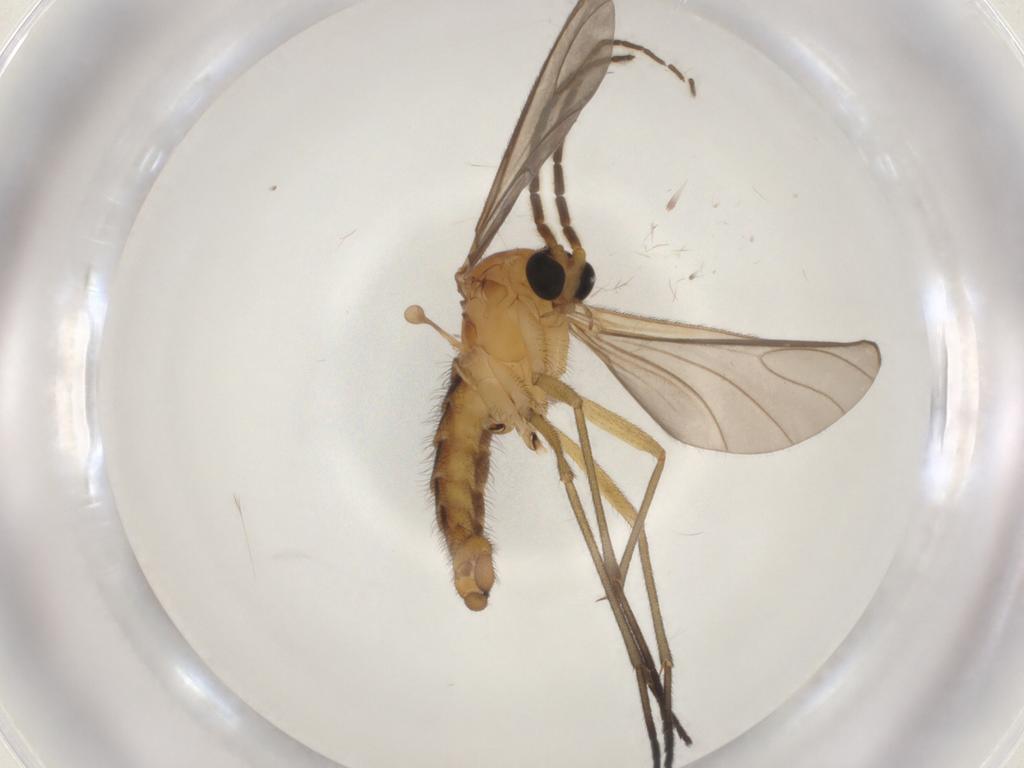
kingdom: Animalia
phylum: Arthropoda
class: Insecta
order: Diptera
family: Sciaridae
